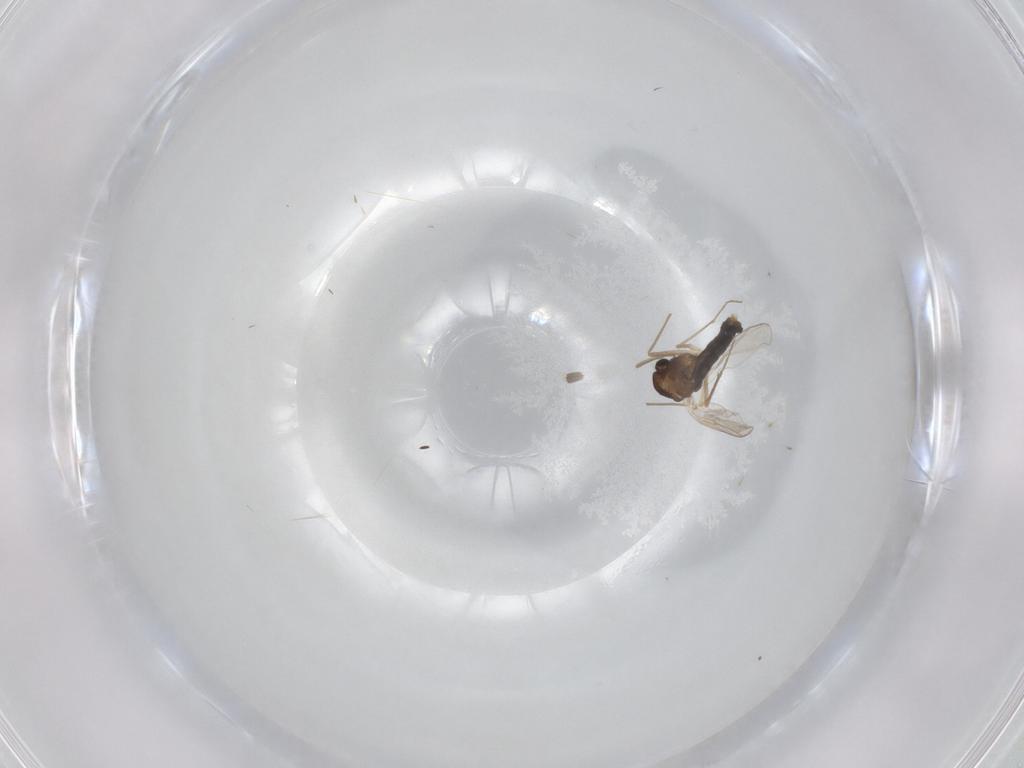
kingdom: Animalia
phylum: Arthropoda
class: Insecta
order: Diptera
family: Chironomidae
